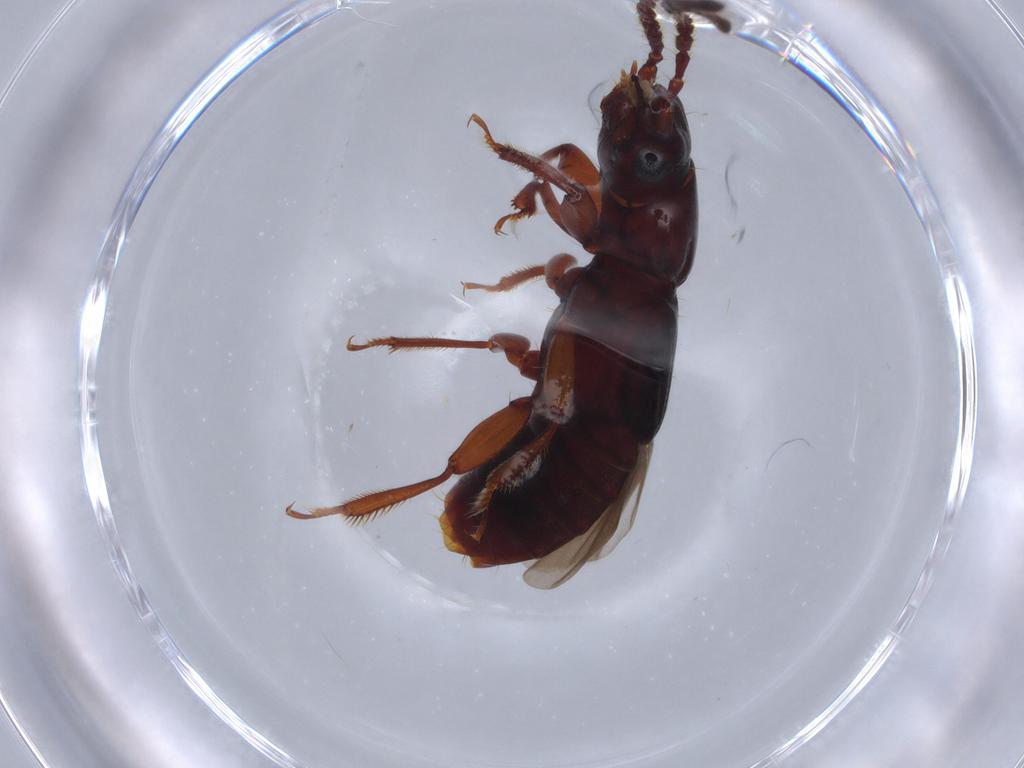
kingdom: Animalia
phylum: Arthropoda
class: Insecta
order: Coleoptera
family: Staphylinidae
